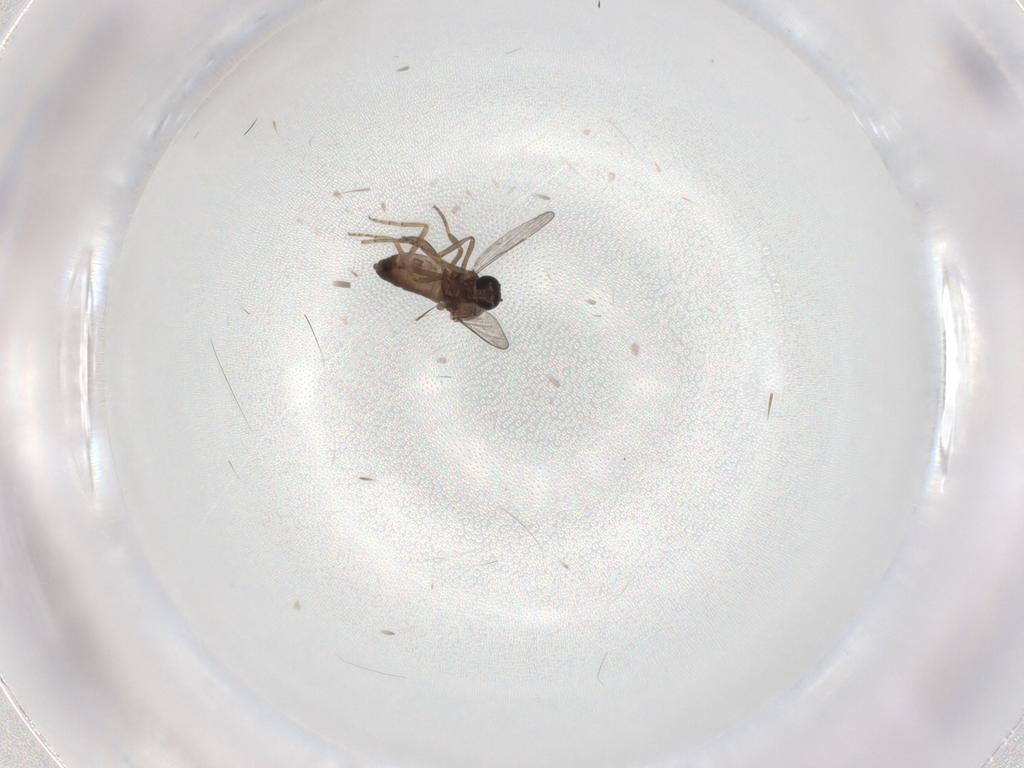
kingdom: Animalia
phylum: Arthropoda
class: Insecta
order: Diptera
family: Ceratopogonidae
